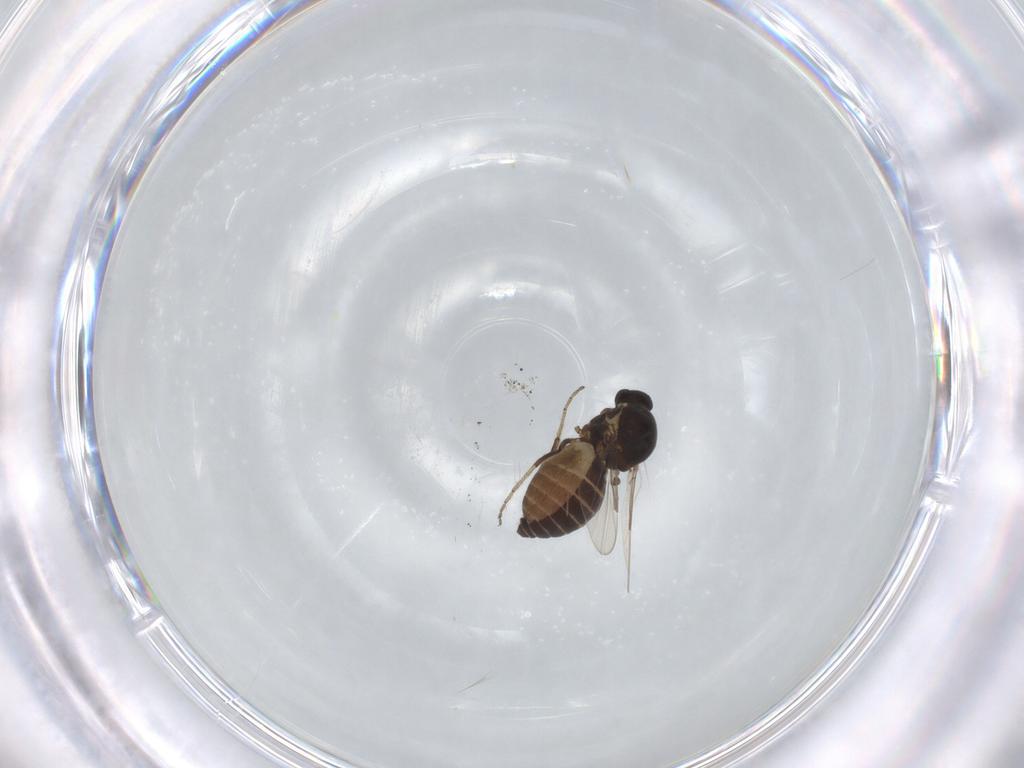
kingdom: Animalia
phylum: Arthropoda
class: Insecta
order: Diptera
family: Ceratopogonidae
